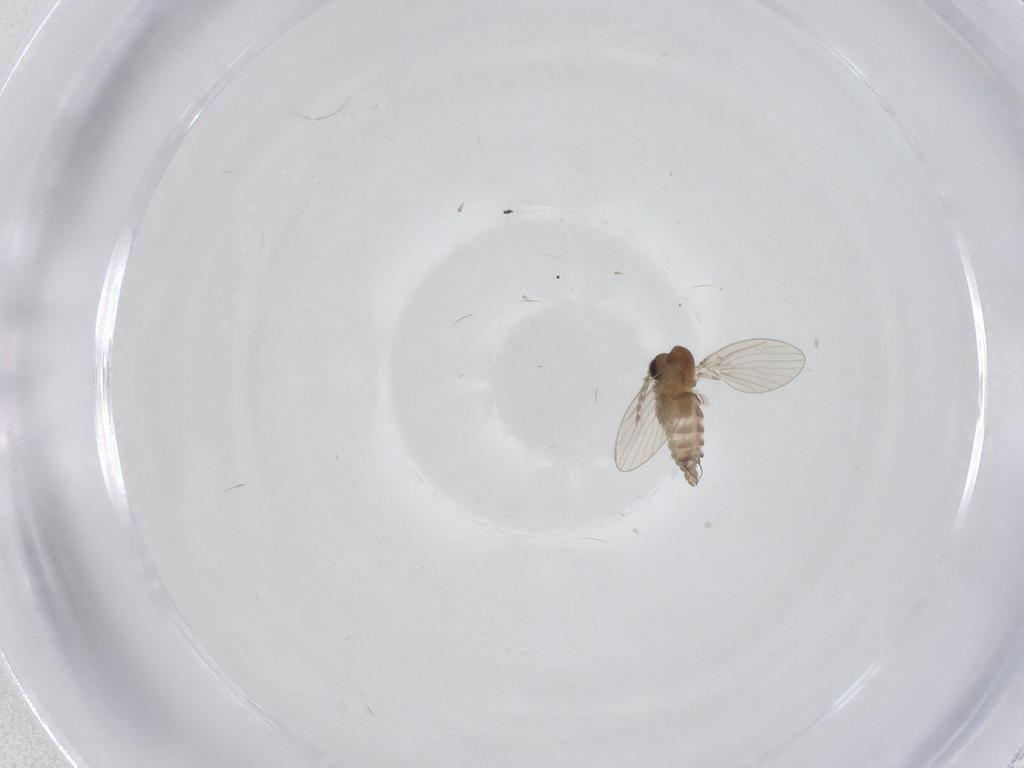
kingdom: Animalia
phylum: Arthropoda
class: Insecta
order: Diptera
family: Psychodidae
